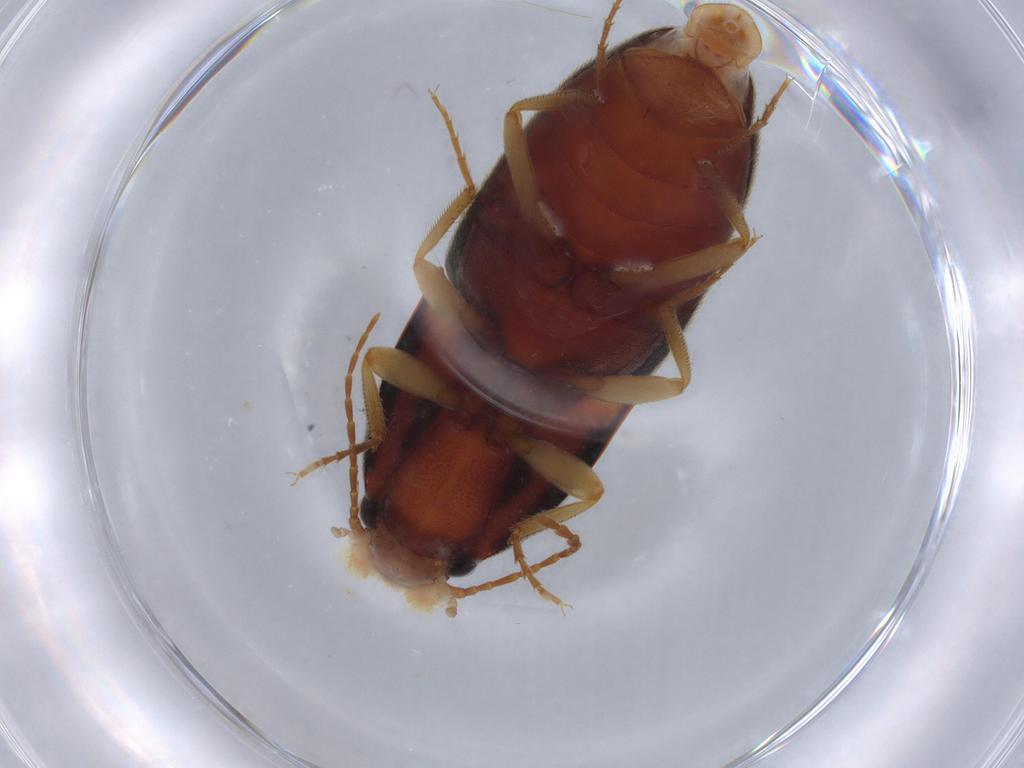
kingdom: Animalia
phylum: Arthropoda
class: Insecta
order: Coleoptera
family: Elateridae
